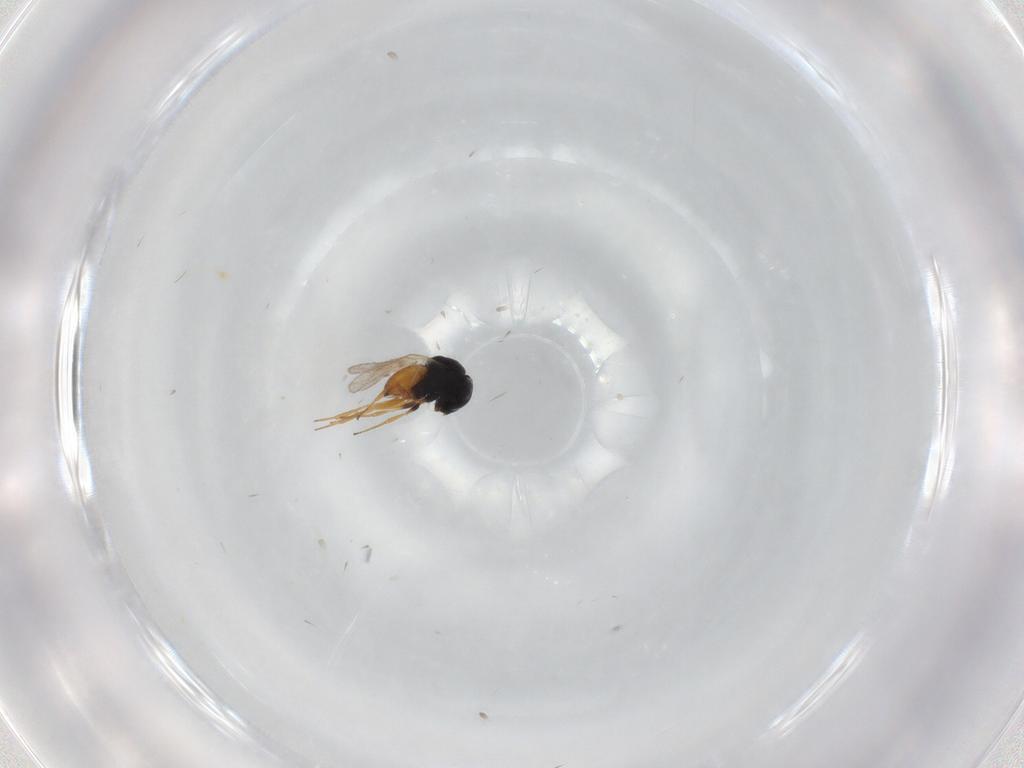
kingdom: Animalia
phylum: Arthropoda
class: Insecta
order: Hymenoptera
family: Scelionidae
